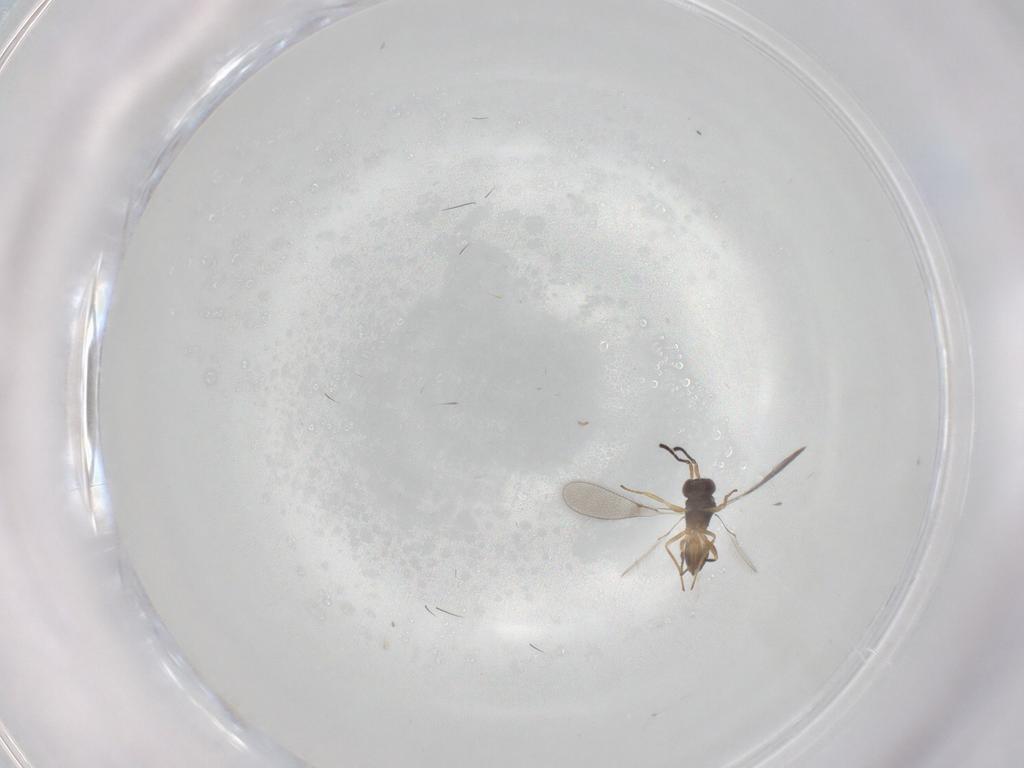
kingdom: Animalia
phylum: Arthropoda
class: Insecta
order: Hymenoptera
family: Mymaridae
